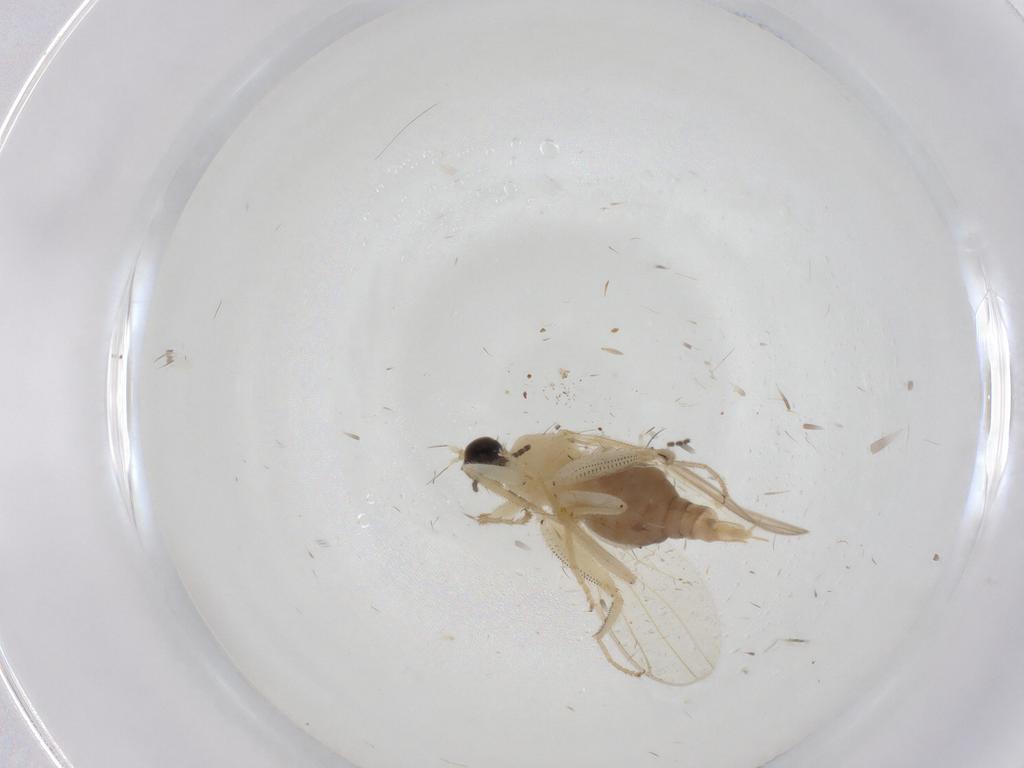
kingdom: Animalia
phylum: Arthropoda
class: Insecta
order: Diptera
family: Hybotidae
